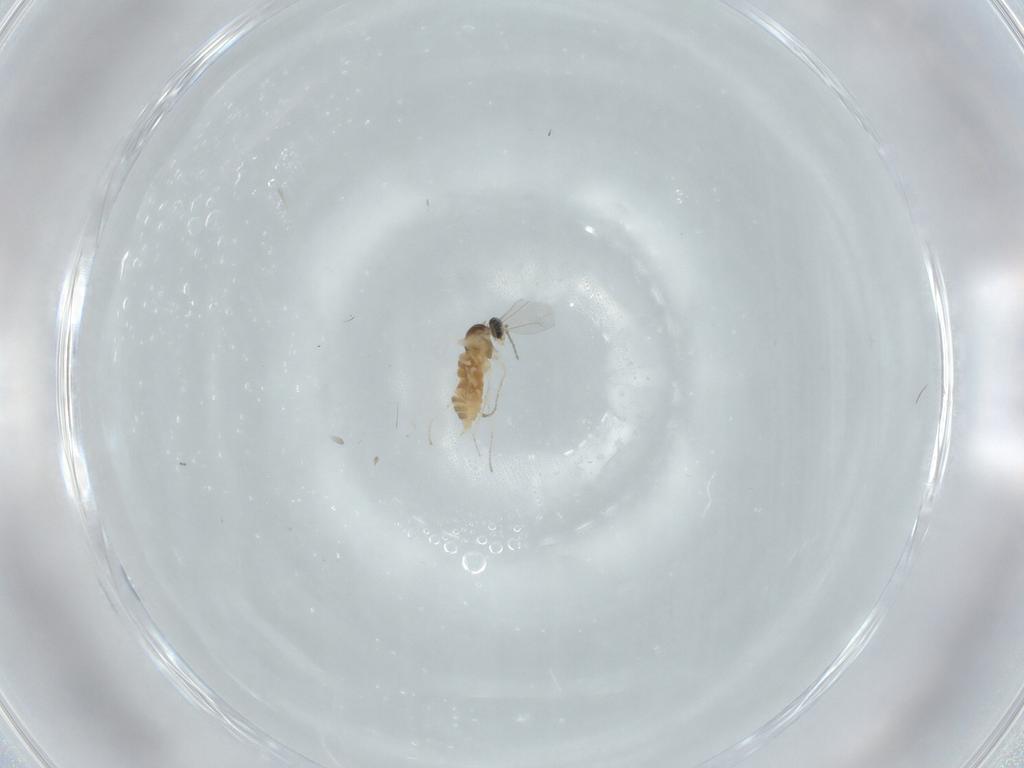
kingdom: Animalia
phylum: Arthropoda
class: Insecta
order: Diptera
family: Cecidomyiidae
